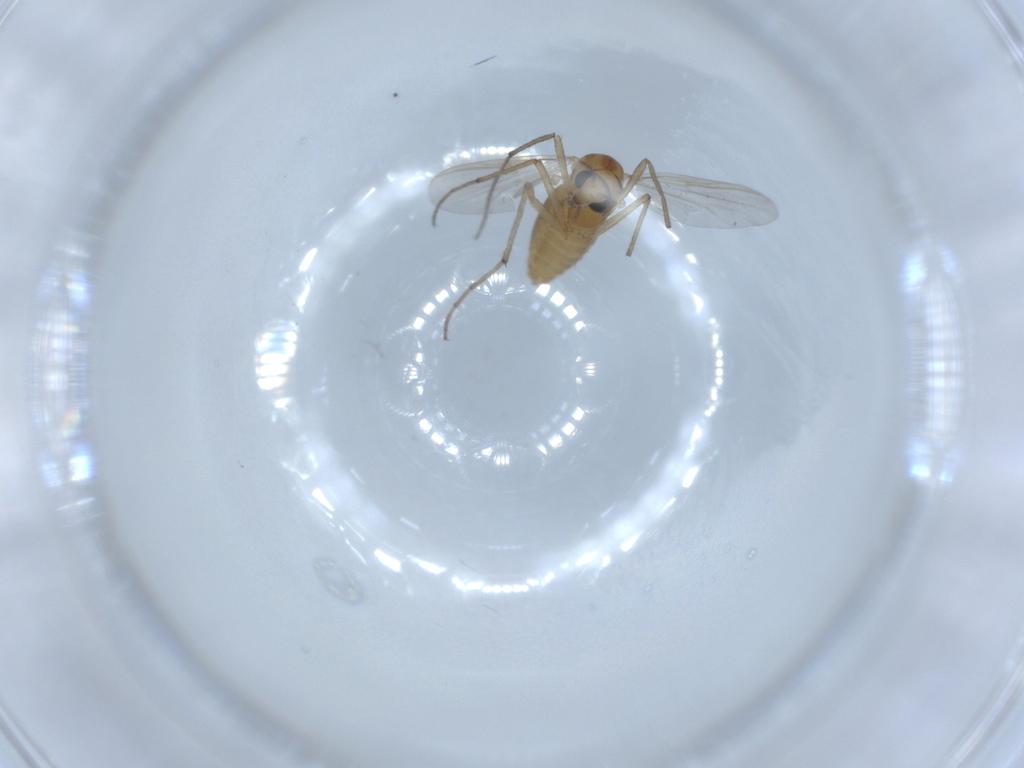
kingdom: Animalia
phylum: Arthropoda
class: Insecta
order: Diptera
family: Chironomidae
